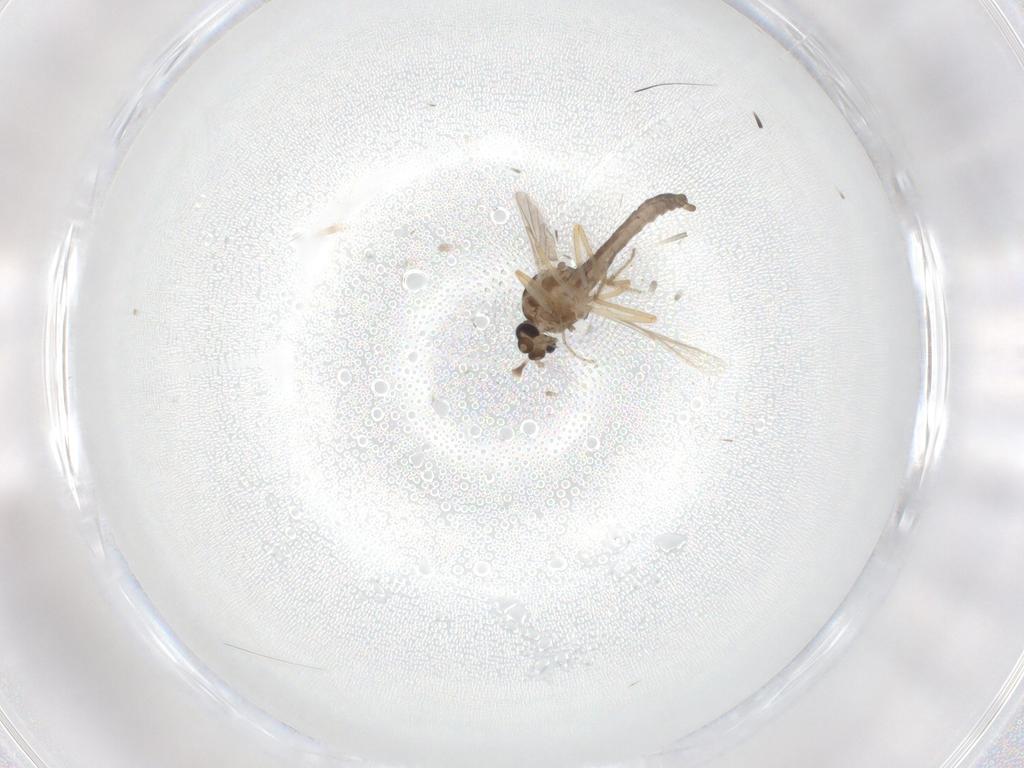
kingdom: Animalia
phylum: Arthropoda
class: Insecta
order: Diptera
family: Ceratopogonidae
